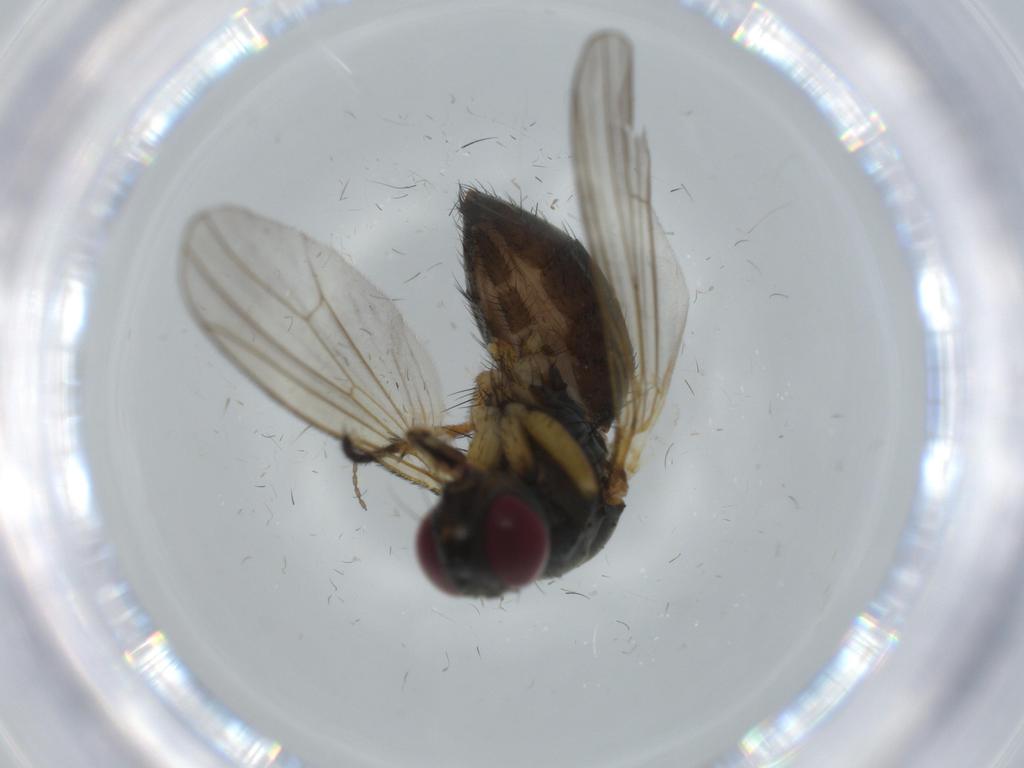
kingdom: Animalia
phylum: Arthropoda
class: Insecta
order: Diptera
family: Muscidae
